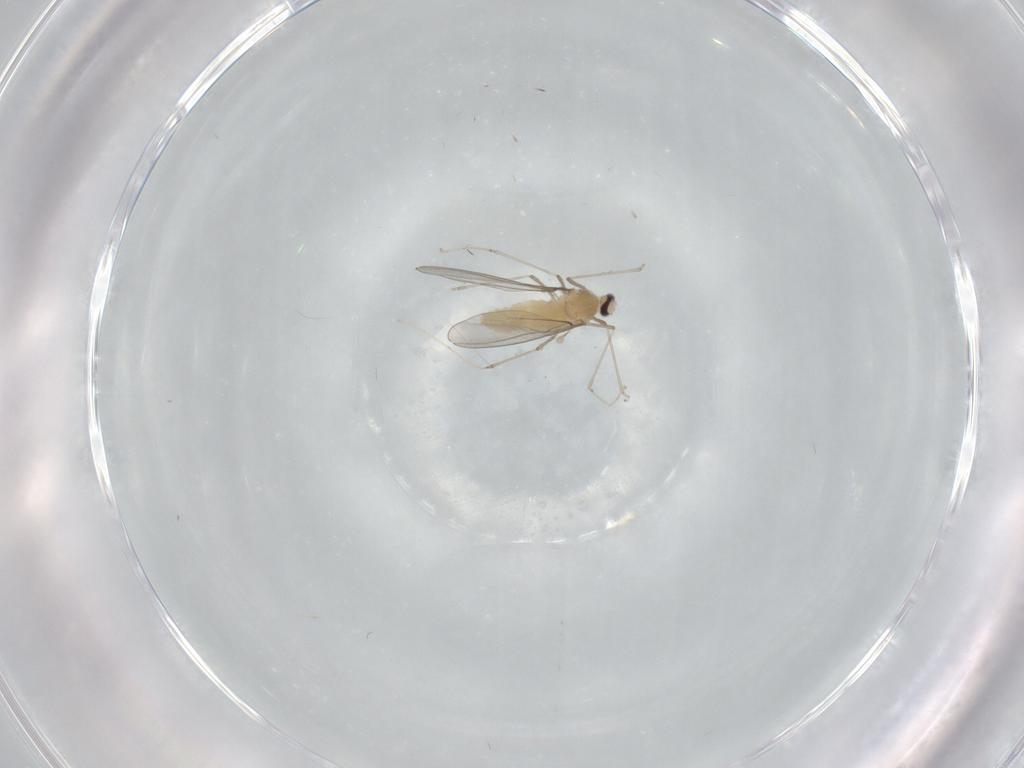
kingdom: Animalia
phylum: Arthropoda
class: Insecta
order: Diptera
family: Cecidomyiidae
